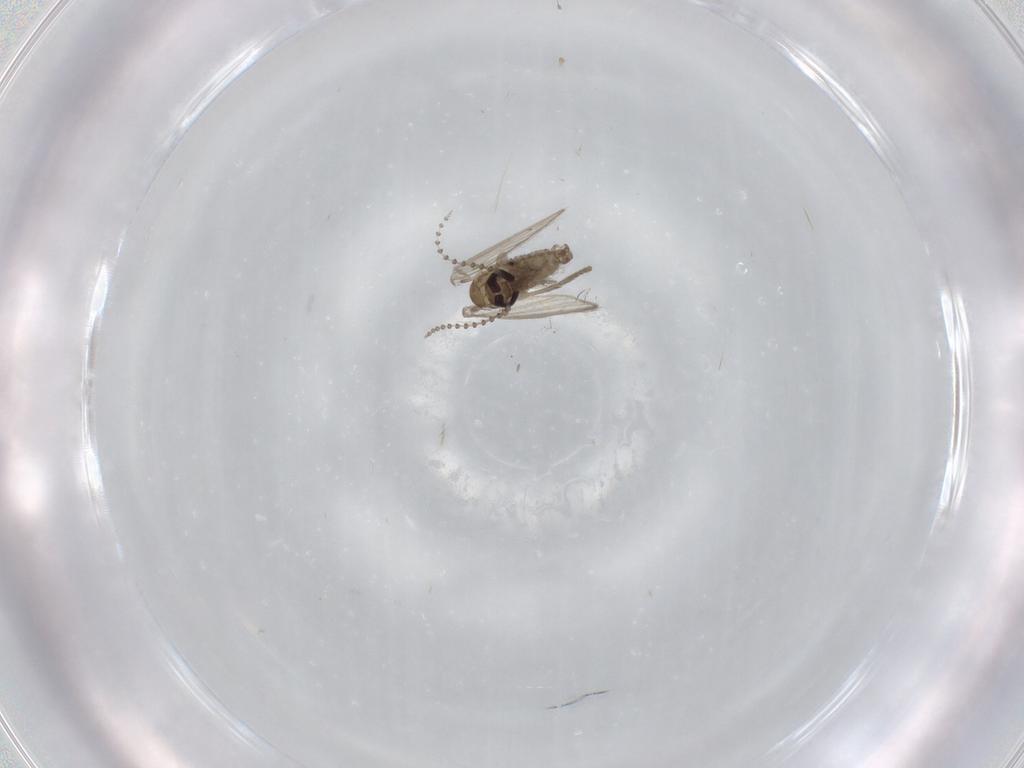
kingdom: Animalia
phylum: Arthropoda
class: Insecta
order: Diptera
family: Psychodidae
